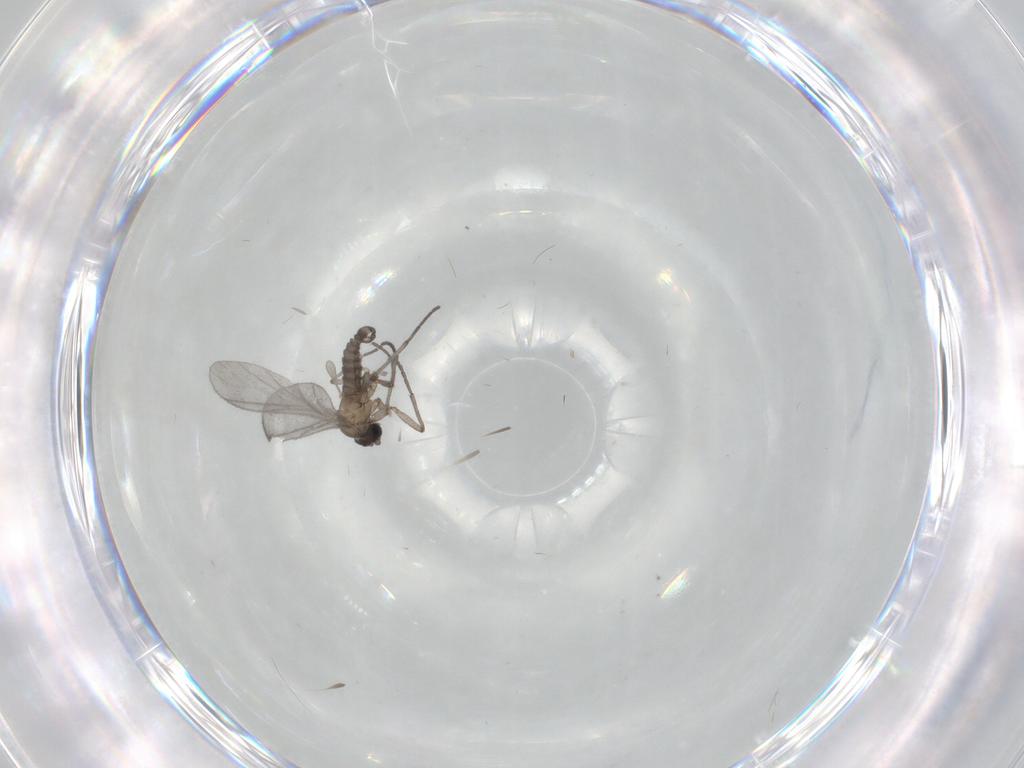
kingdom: Animalia
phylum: Arthropoda
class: Insecta
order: Diptera
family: Sciaridae
